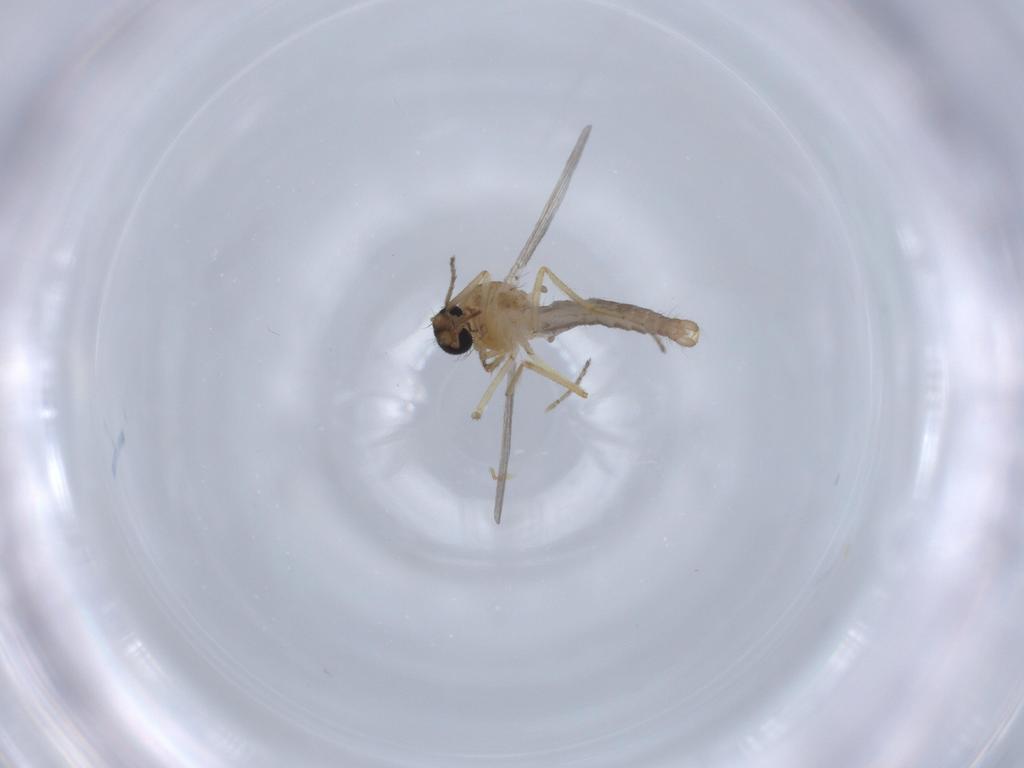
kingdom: Animalia
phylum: Arthropoda
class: Insecta
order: Diptera
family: Ceratopogonidae
